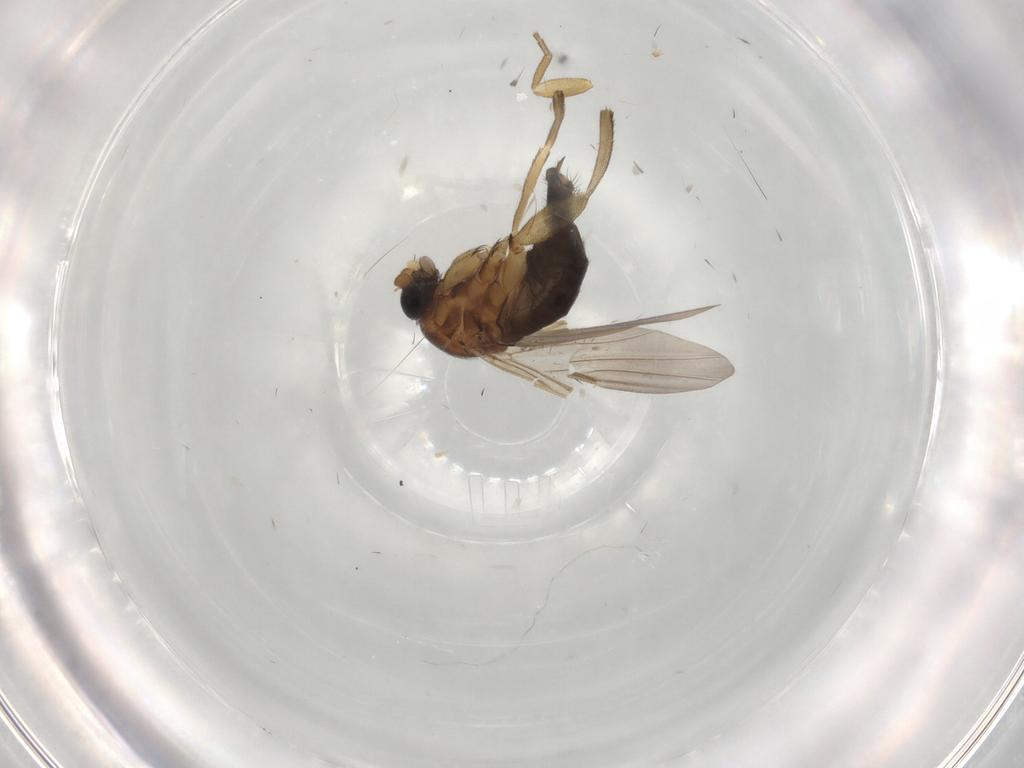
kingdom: Animalia
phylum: Arthropoda
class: Insecta
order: Diptera
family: Phoridae
